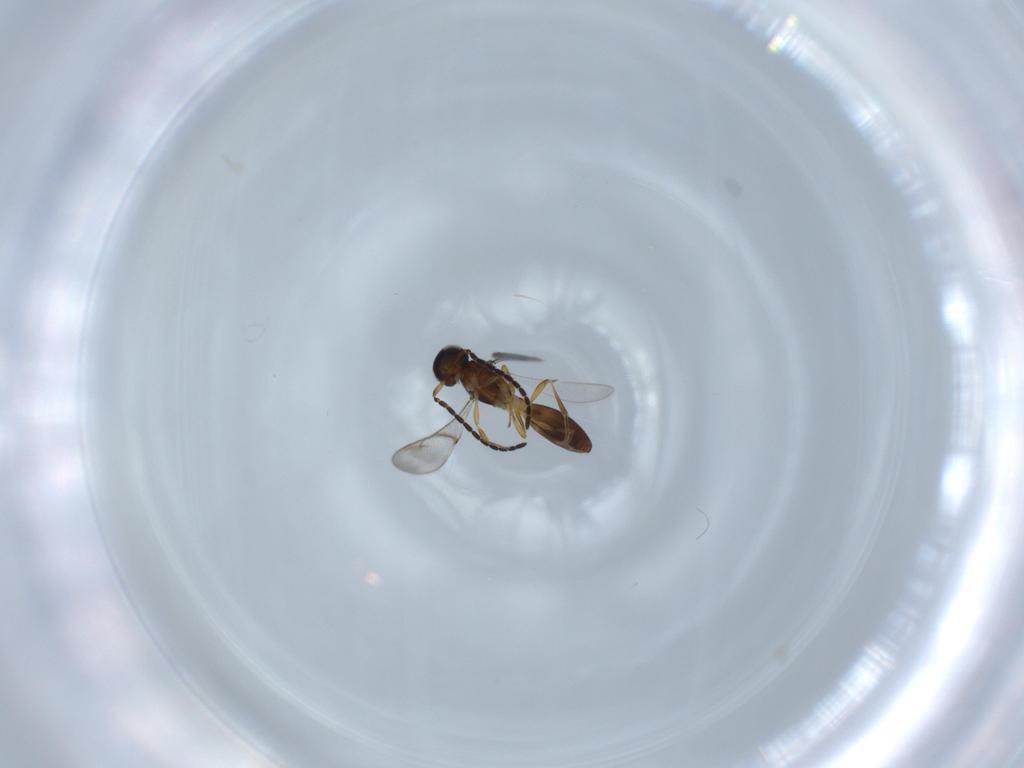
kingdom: Animalia
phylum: Arthropoda
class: Insecta
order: Hymenoptera
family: Scelionidae
